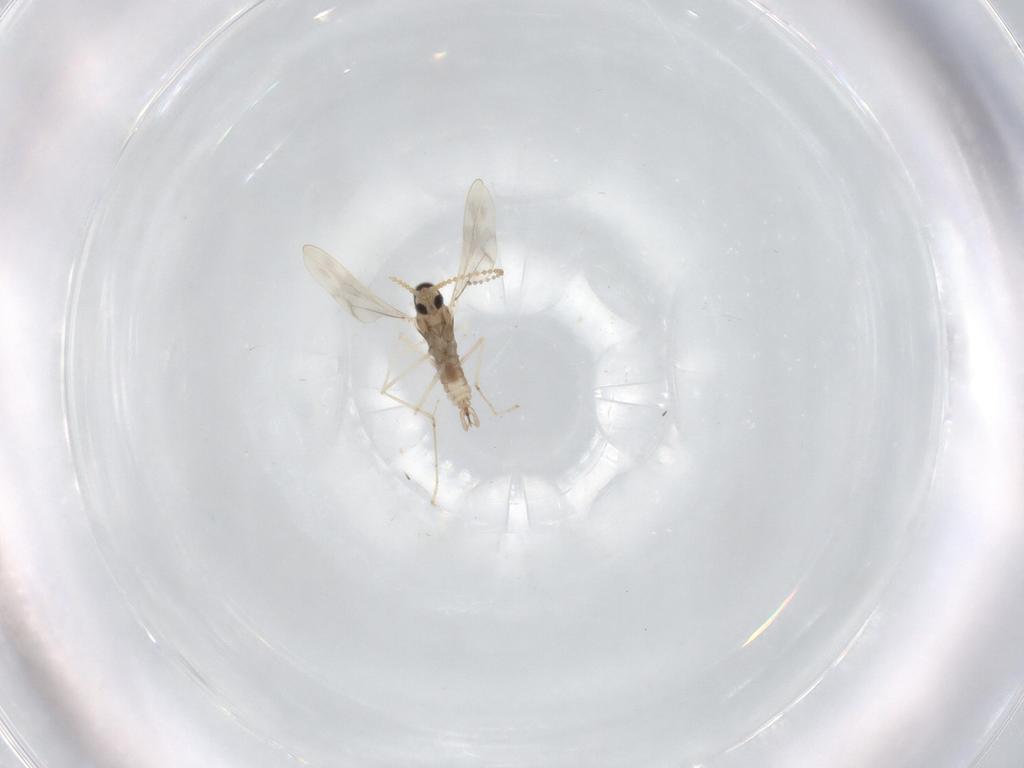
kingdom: Animalia
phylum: Arthropoda
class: Insecta
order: Diptera
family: Cecidomyiidae
